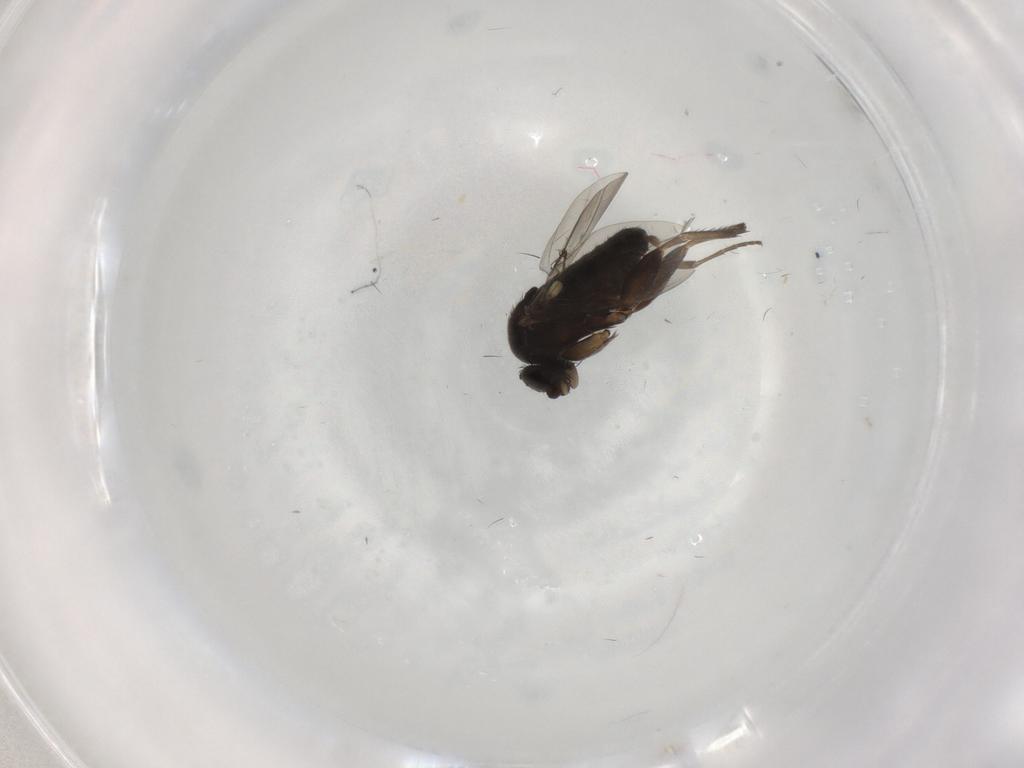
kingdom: Animalia
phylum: Arthropoda
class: Insecta
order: Diptera
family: Phoridae
